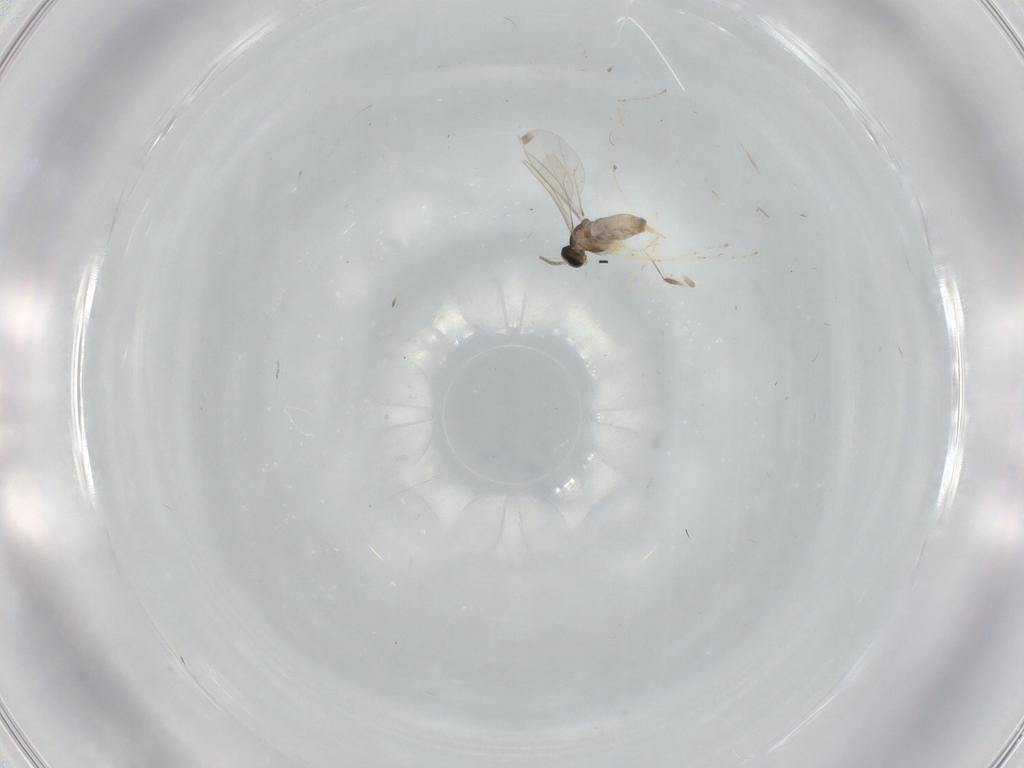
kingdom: Animalia
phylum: Arthropoda
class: Insecta
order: Diptera
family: Cecidomyiidae
